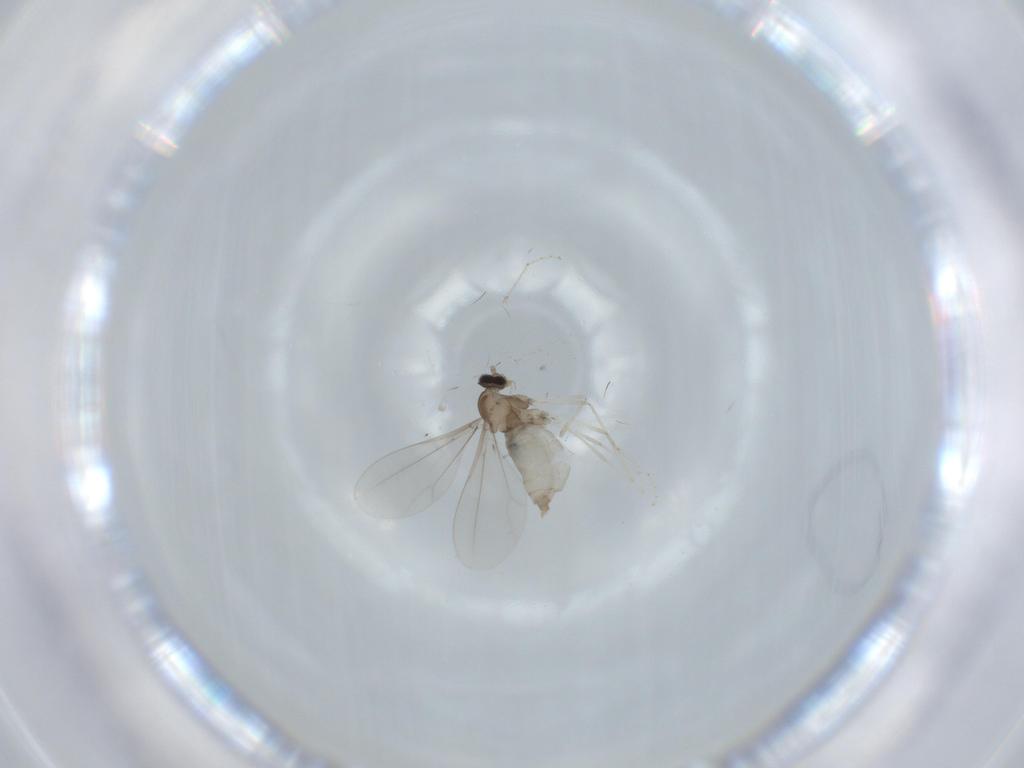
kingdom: Animalia
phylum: Arthropoda
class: Insecta
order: Diptera
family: Cecidomyiidae
